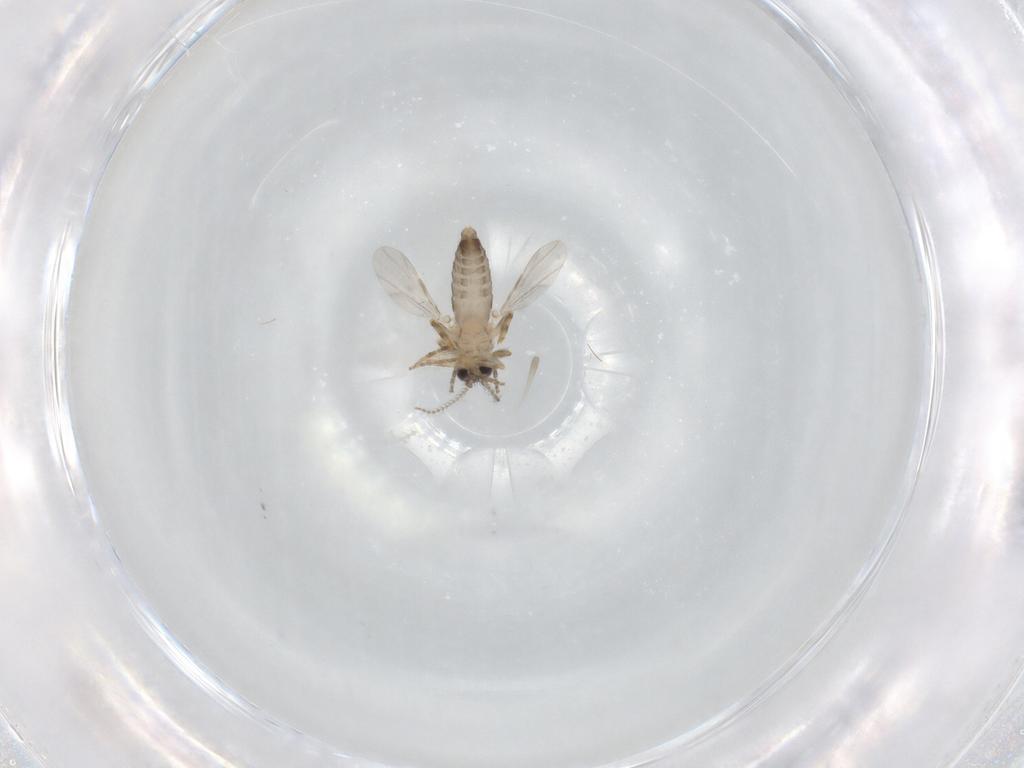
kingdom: Animalia
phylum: Arthropoda
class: Insecta
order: Diptera
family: Ceratopogonidae
